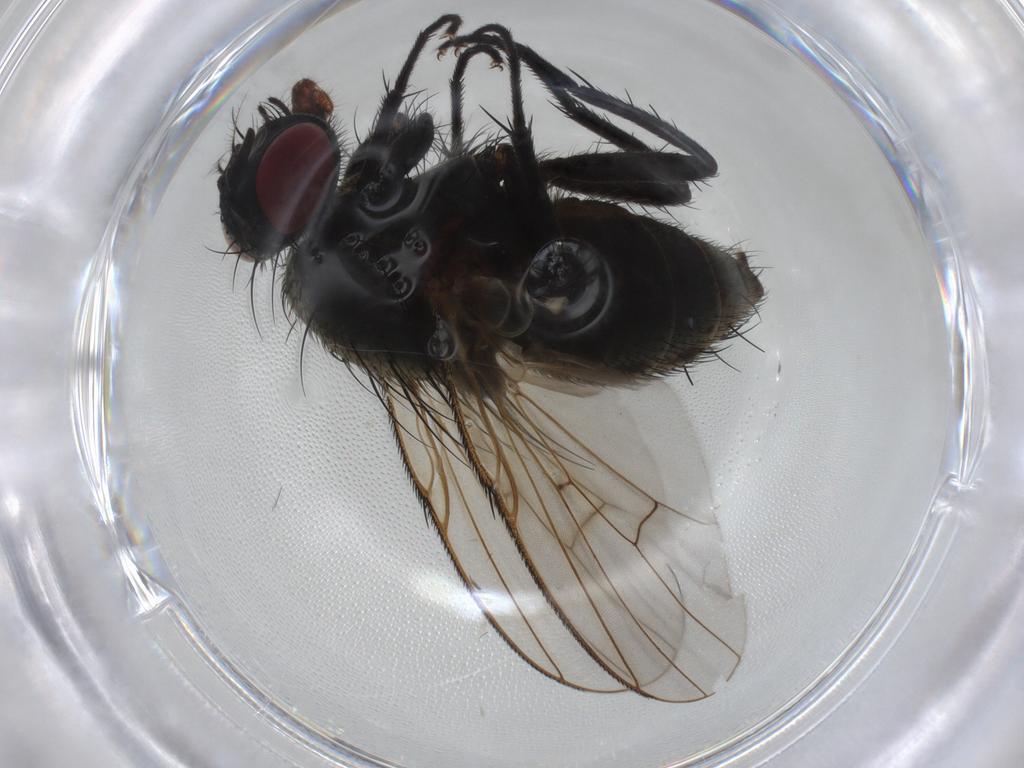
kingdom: Animalia
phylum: Arthropoda
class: Insecta
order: Diptera
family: Muscidae
